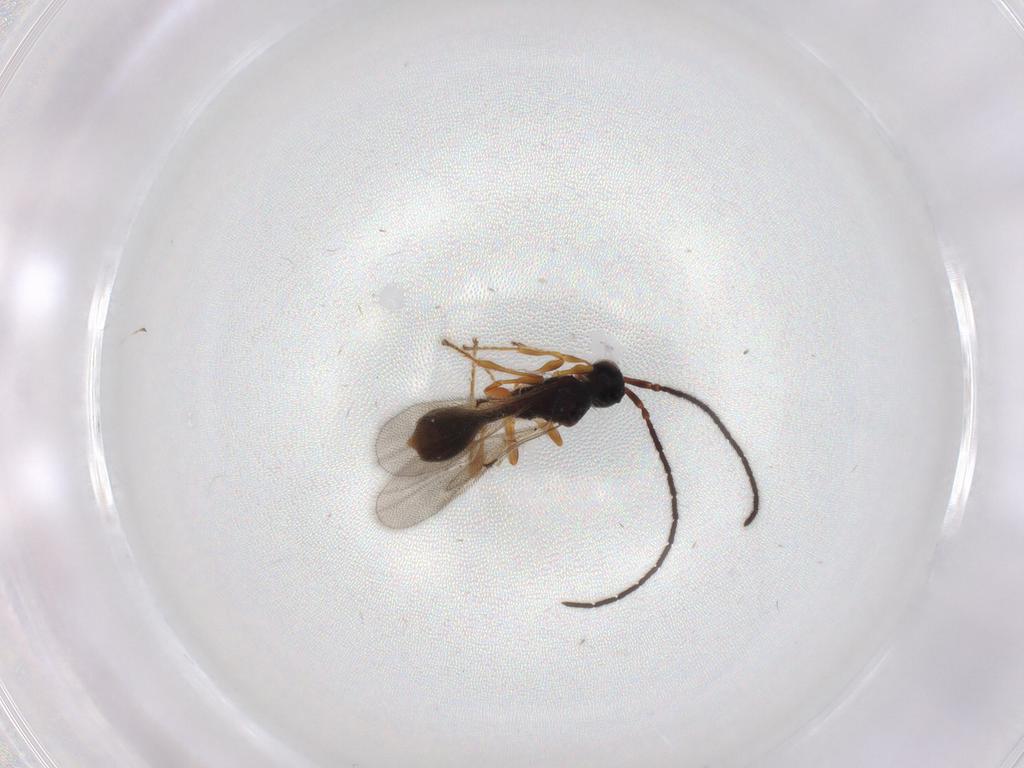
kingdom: Animalia
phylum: Arthropoda
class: Insecta
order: Hymenoptera
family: Diapriidae
